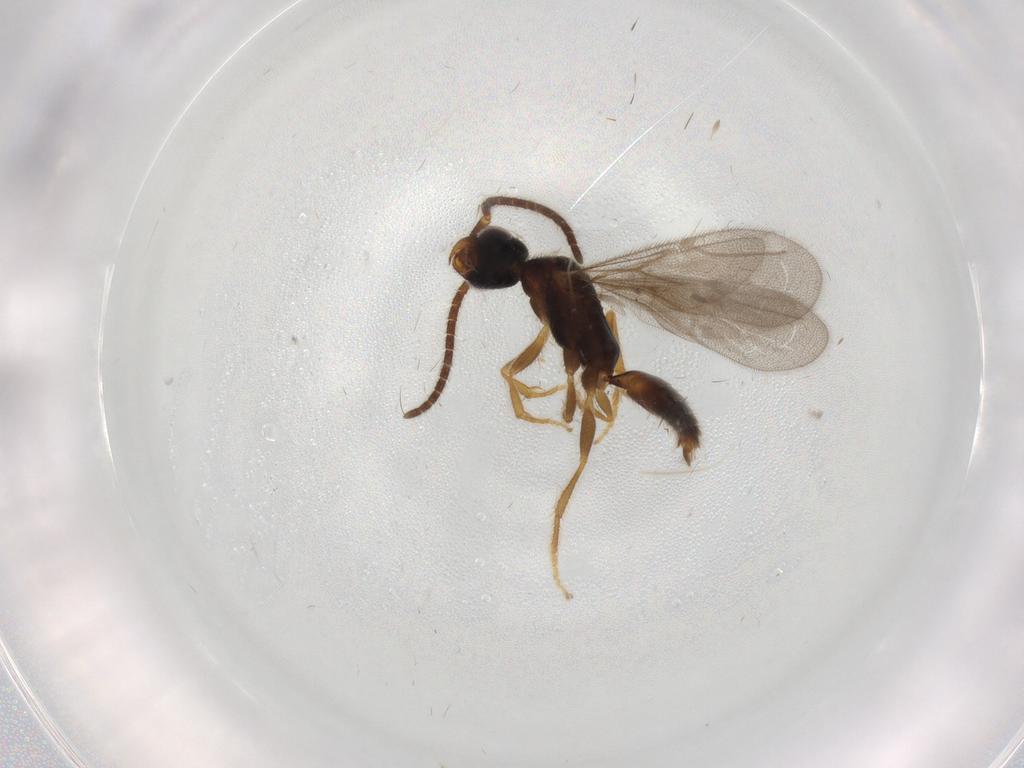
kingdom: Animalia
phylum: Arthropoda
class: Insecta
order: Hymenoptera
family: Bethylidae
